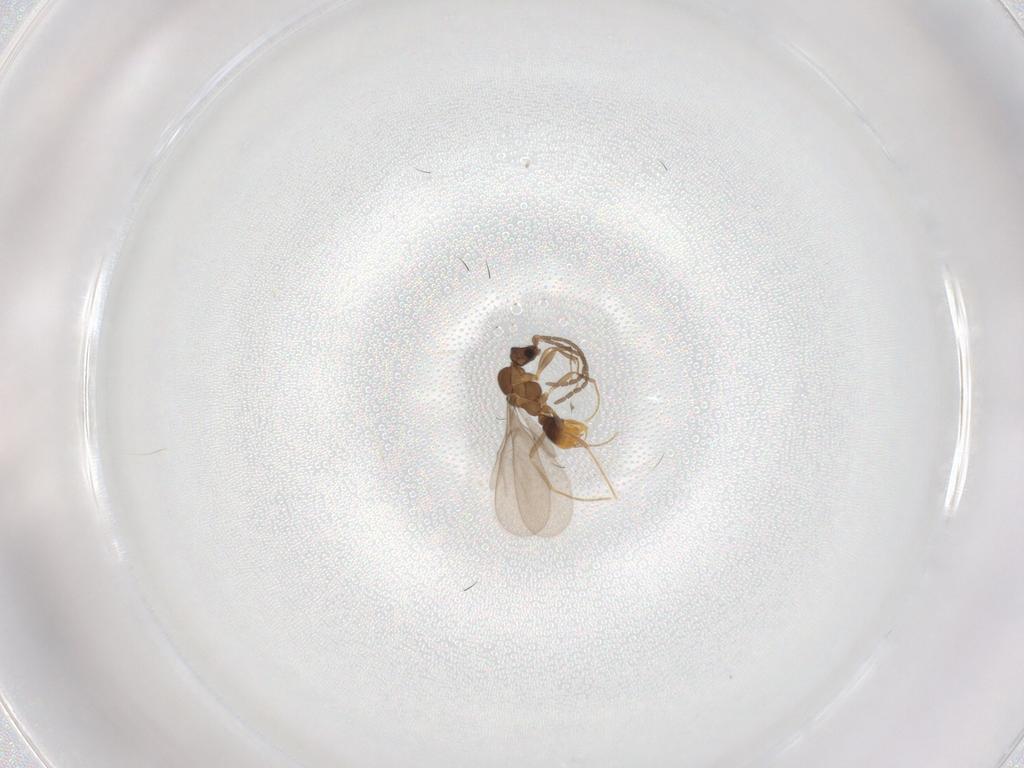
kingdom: Animalia
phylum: Arthropoda
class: Insecta
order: Hymenoptera
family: Formicidae
